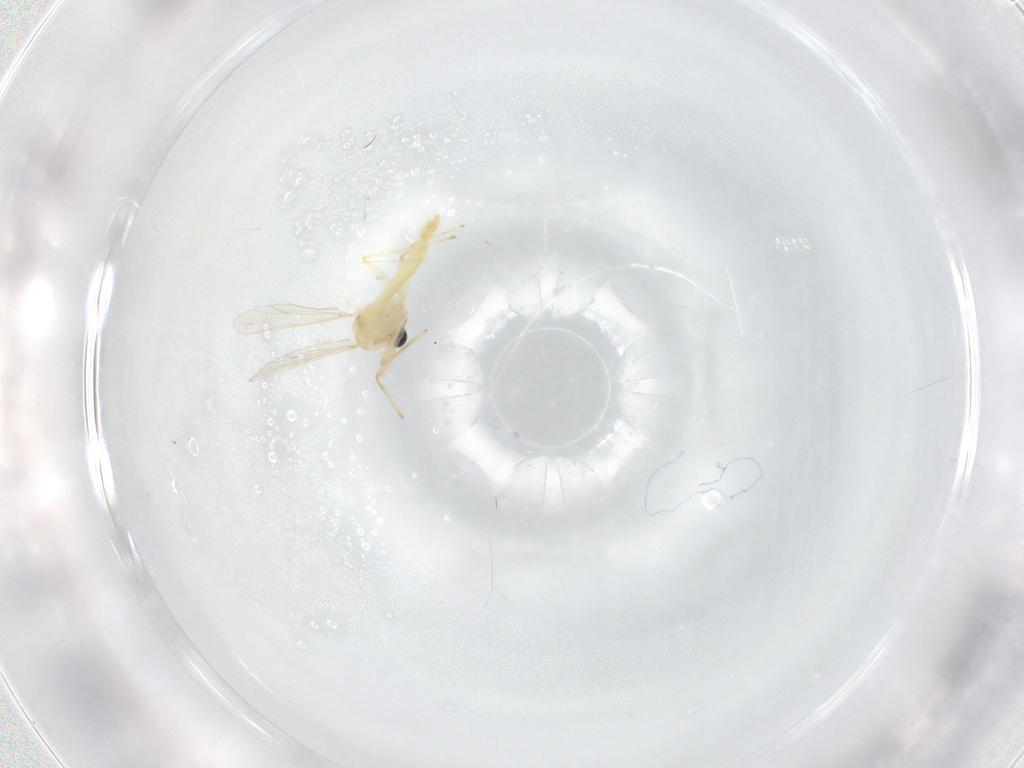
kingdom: Animalia
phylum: Arthropoda
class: Insecta
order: Diptera
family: Chironomidae
